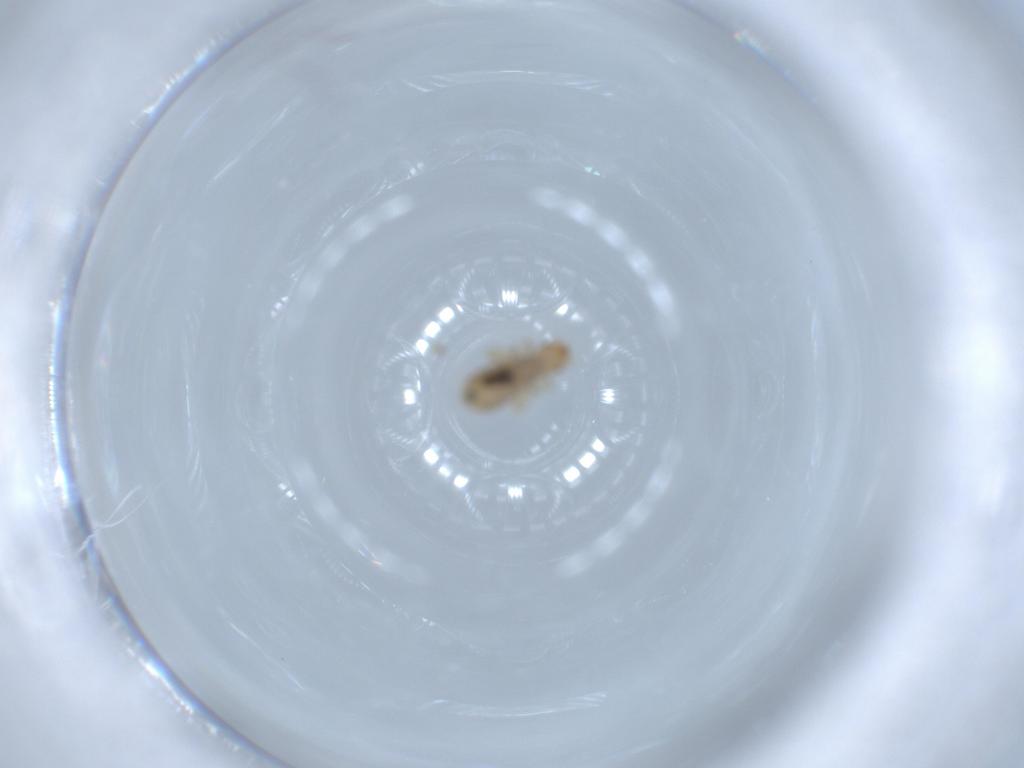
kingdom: Animalia
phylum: Arthropoda
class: Insecta
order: Psocodea
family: Liposcelididae
